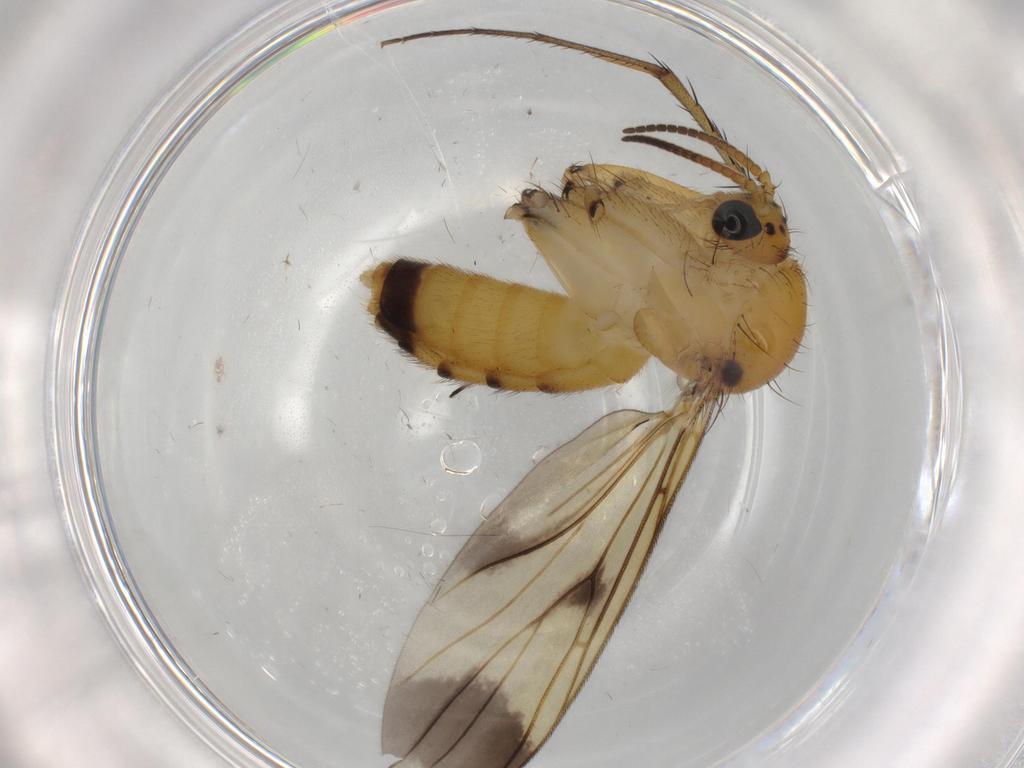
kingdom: Animalia
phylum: Arthropoda
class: Insecta
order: Diptera
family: Mycetophilidae
